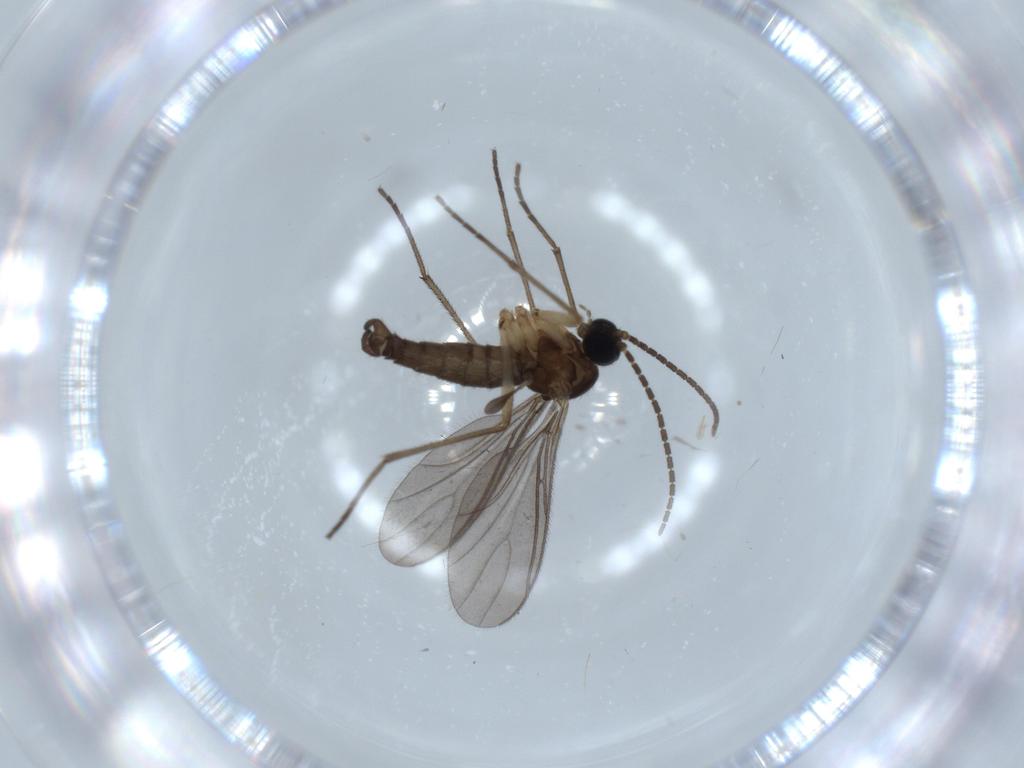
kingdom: Animalia
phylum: Arthropoda
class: Insecta
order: Diptera
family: Sciaridae
